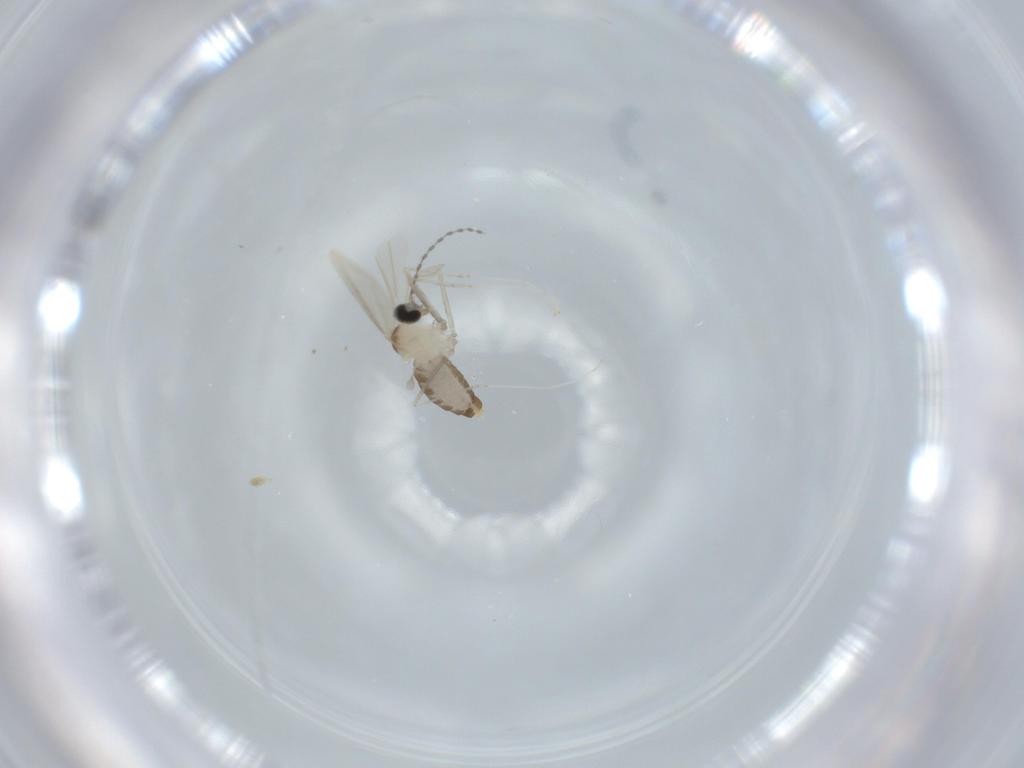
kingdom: Animalia
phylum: Arthropoda
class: Insecta
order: Diptera
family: Cecidomyiidae
